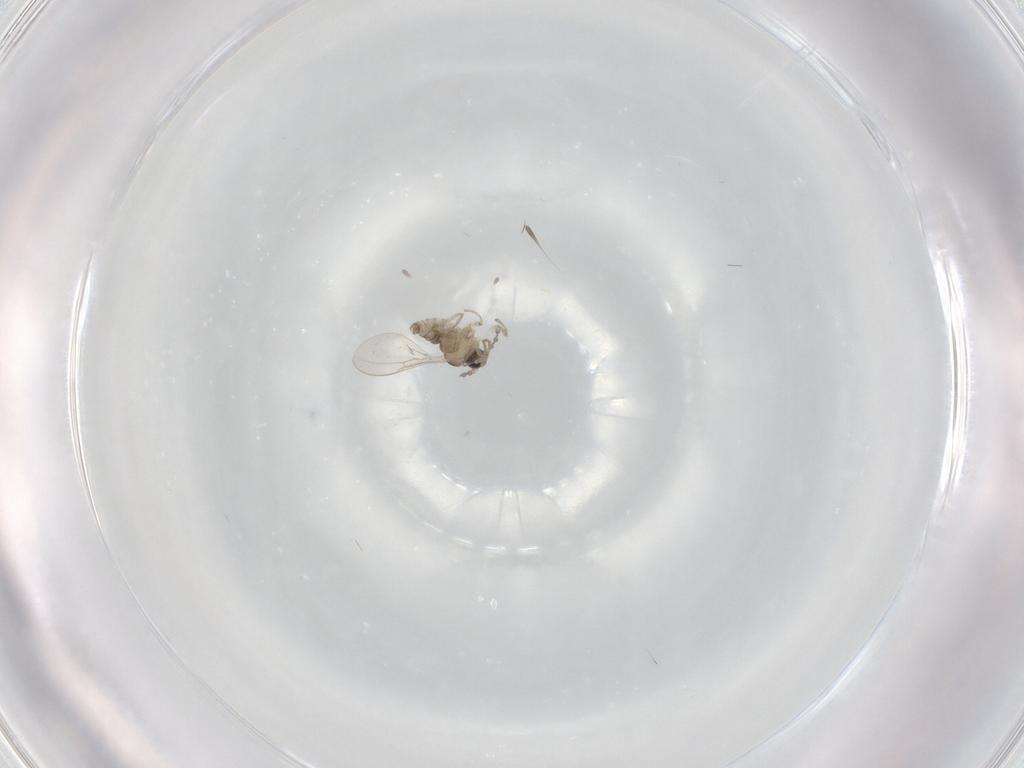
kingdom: Animalia
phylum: Arthropoda
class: Insecta
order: Diptera
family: Cecidomyiidae
